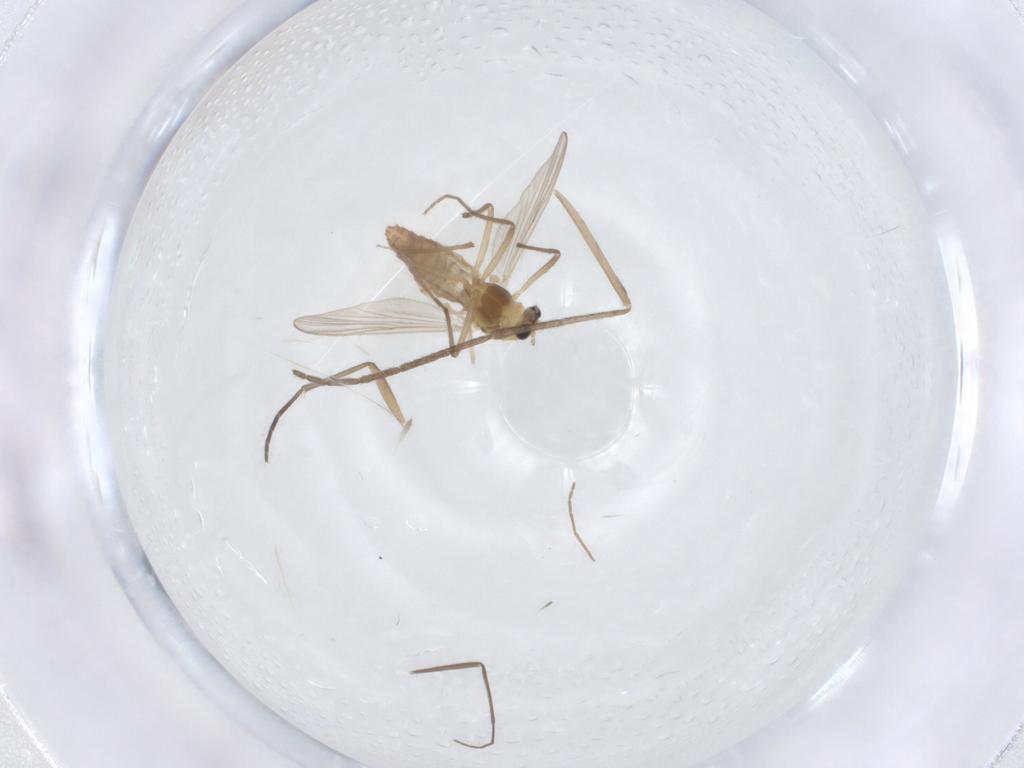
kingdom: Animalia
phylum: Arthropoda
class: Insecta
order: Diptera
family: Chironomidae
